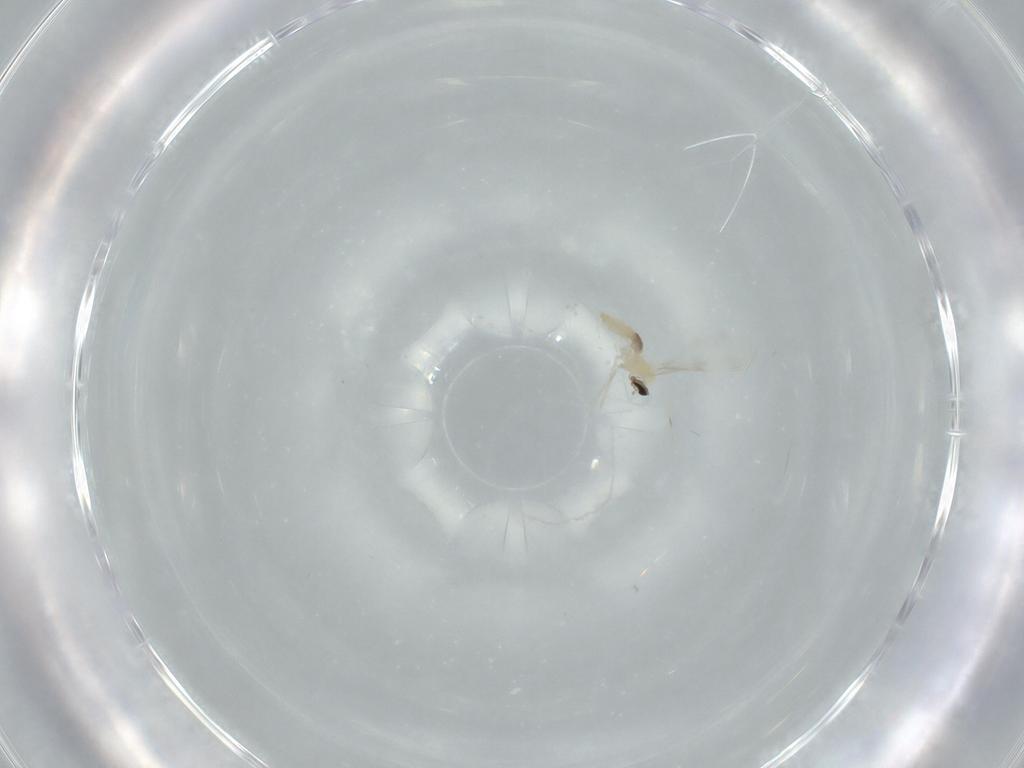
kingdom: Animalia
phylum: Arthropoda
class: Insecta
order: Diptera
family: Cecidomyiidae
